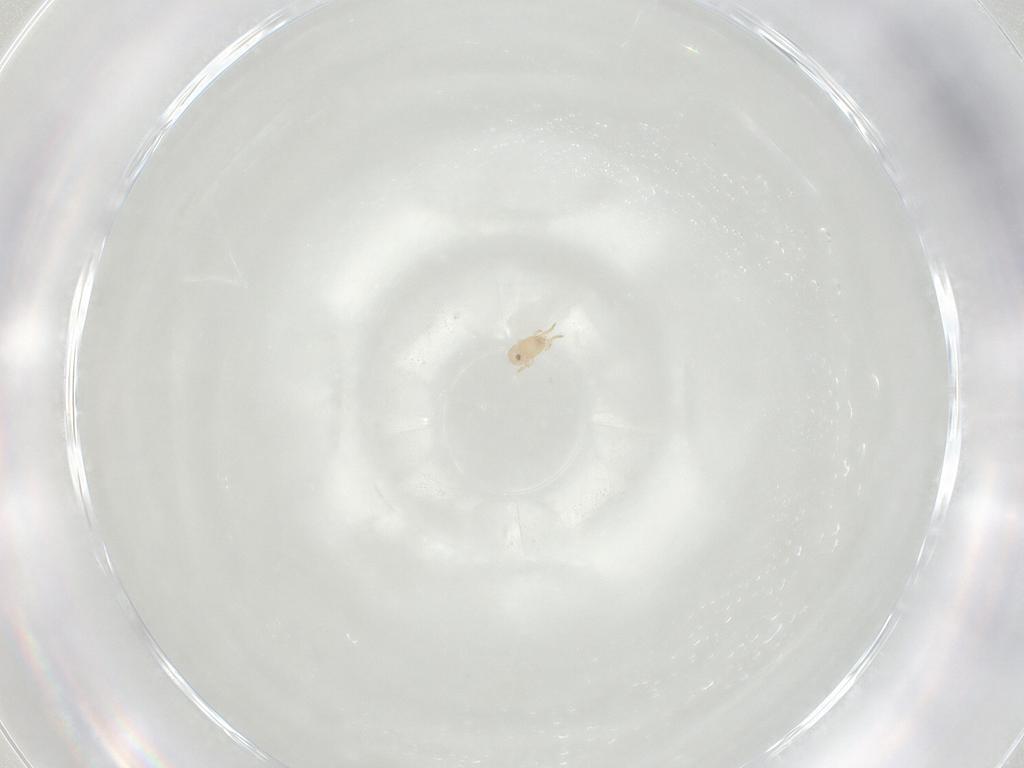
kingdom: Animalia
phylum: Arthropoda
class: Arachnida
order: Mesostigmata
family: Ameroseiidae
